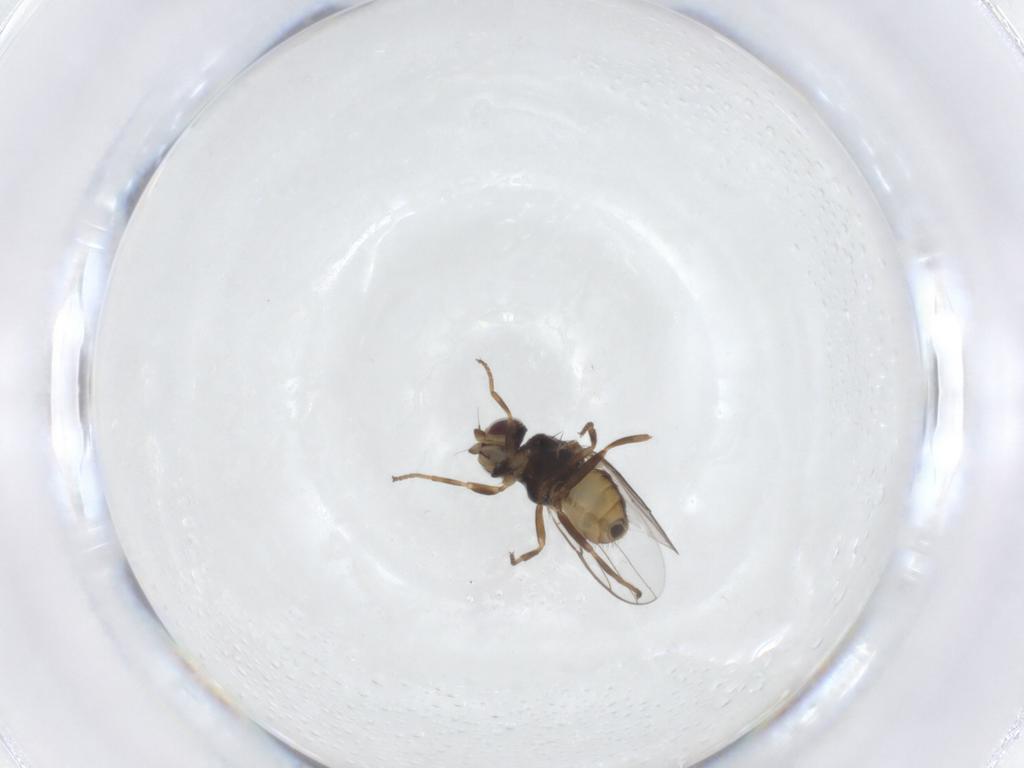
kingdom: Animalia
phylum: Arthropoda
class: Insecta
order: Diptera
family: Chloropidae
